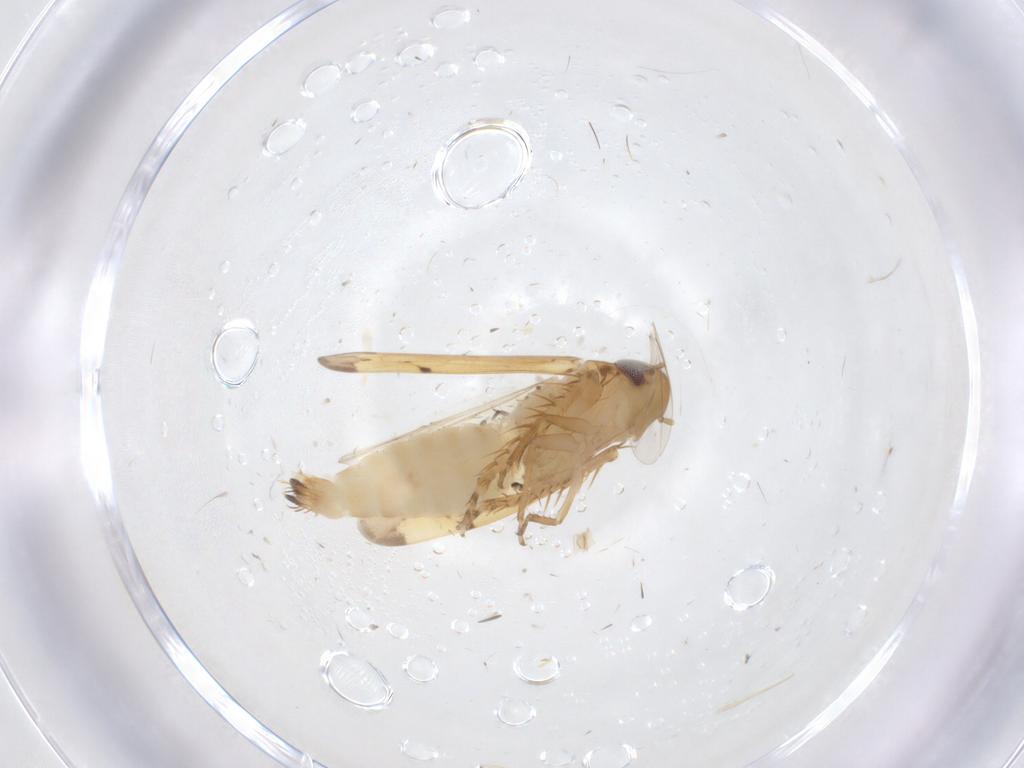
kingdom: Animalia
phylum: Arthropoda
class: Insecta
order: Hemiptera
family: Cicadellidae
